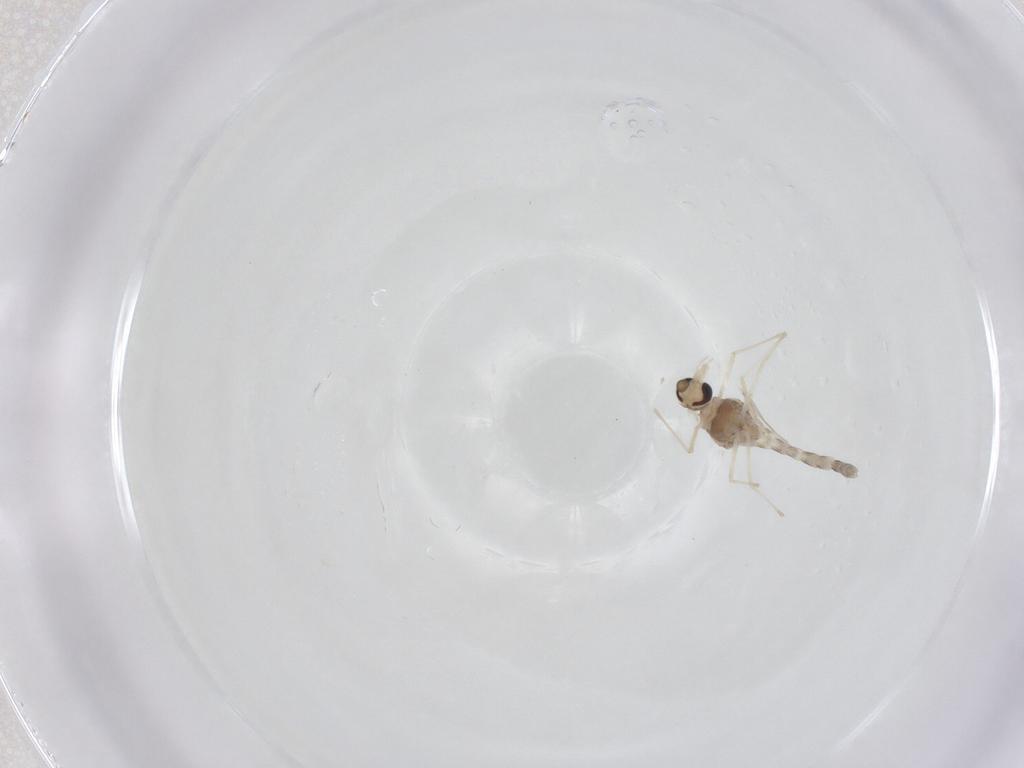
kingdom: Animalia
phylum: Arthropoda
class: Insecta
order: Diptera
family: Chironomidae
